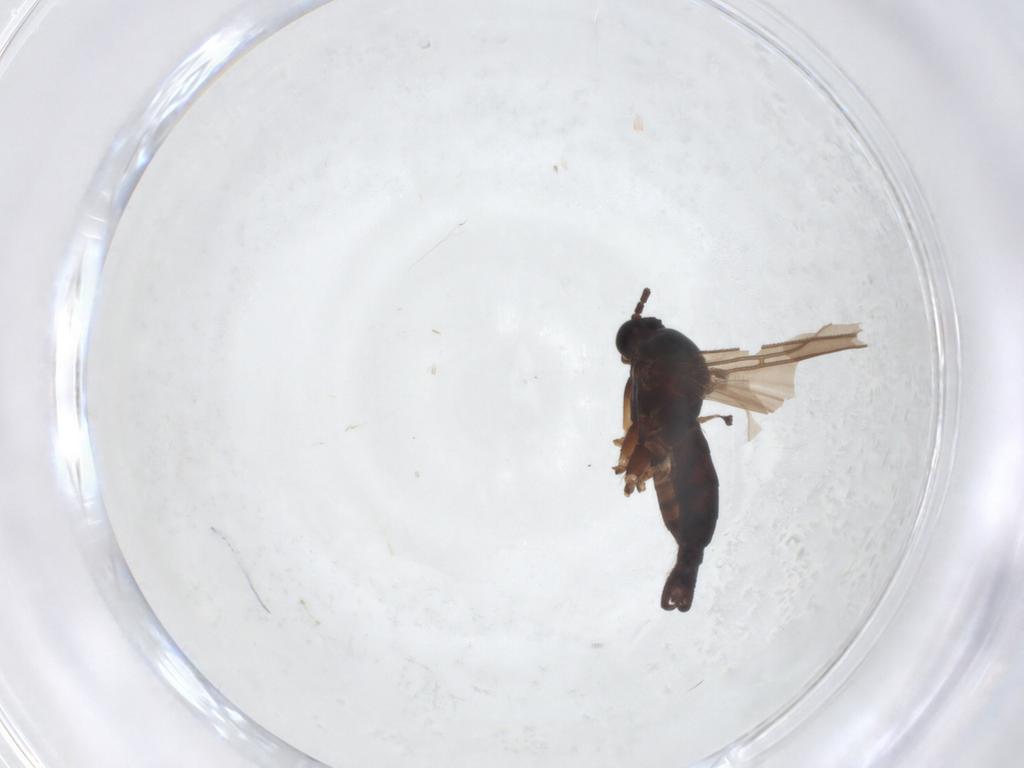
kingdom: Animalia
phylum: Arthropoda
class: Insecta
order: Diptera
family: Sciaridae
